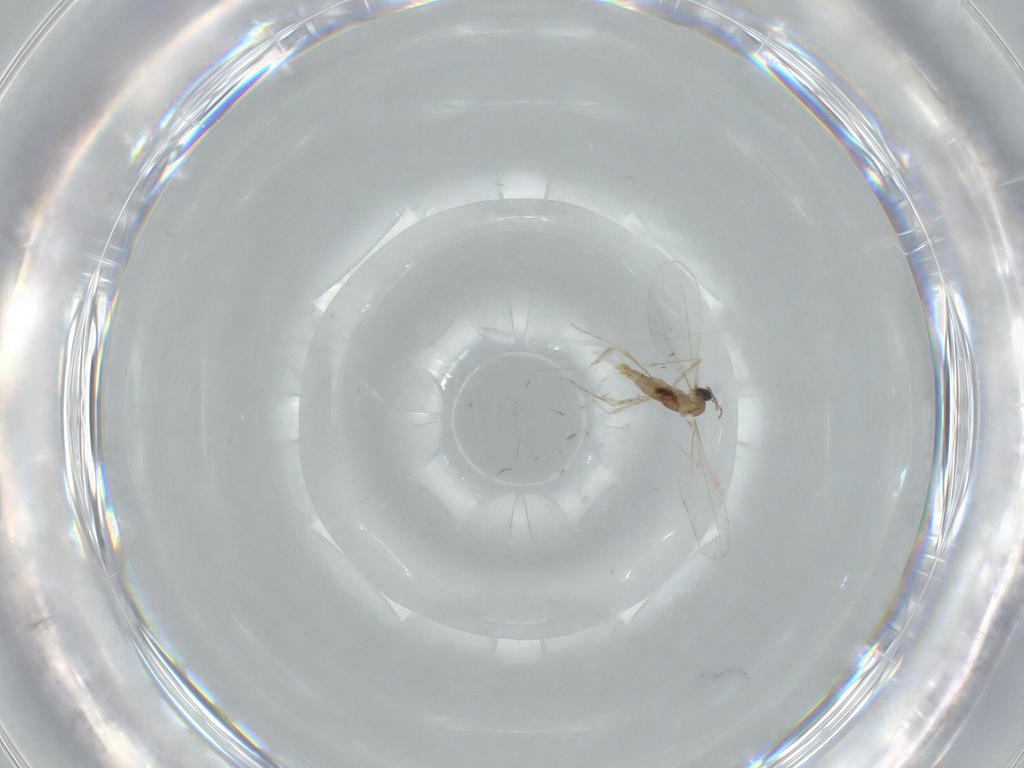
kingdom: Animalia
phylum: Arthropoda
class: Insecta
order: Diptera
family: Cecidomyiidae
